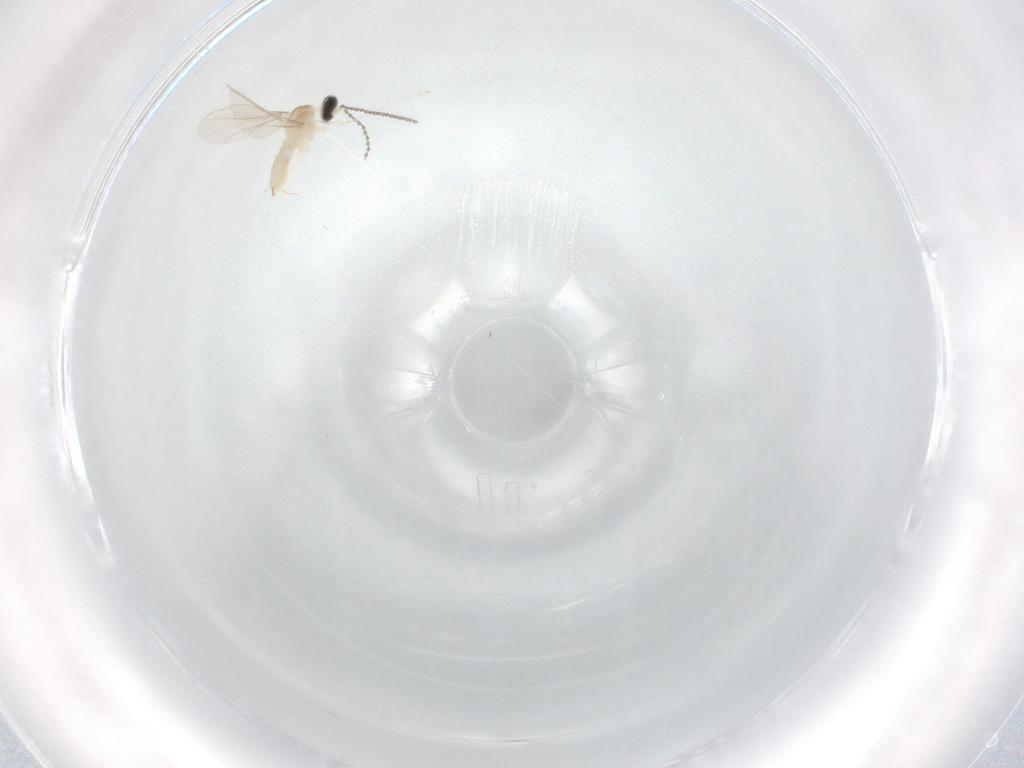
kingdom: Animalia
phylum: Arthropoda
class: Insecta
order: Diptera
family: Cecidomyiidae
